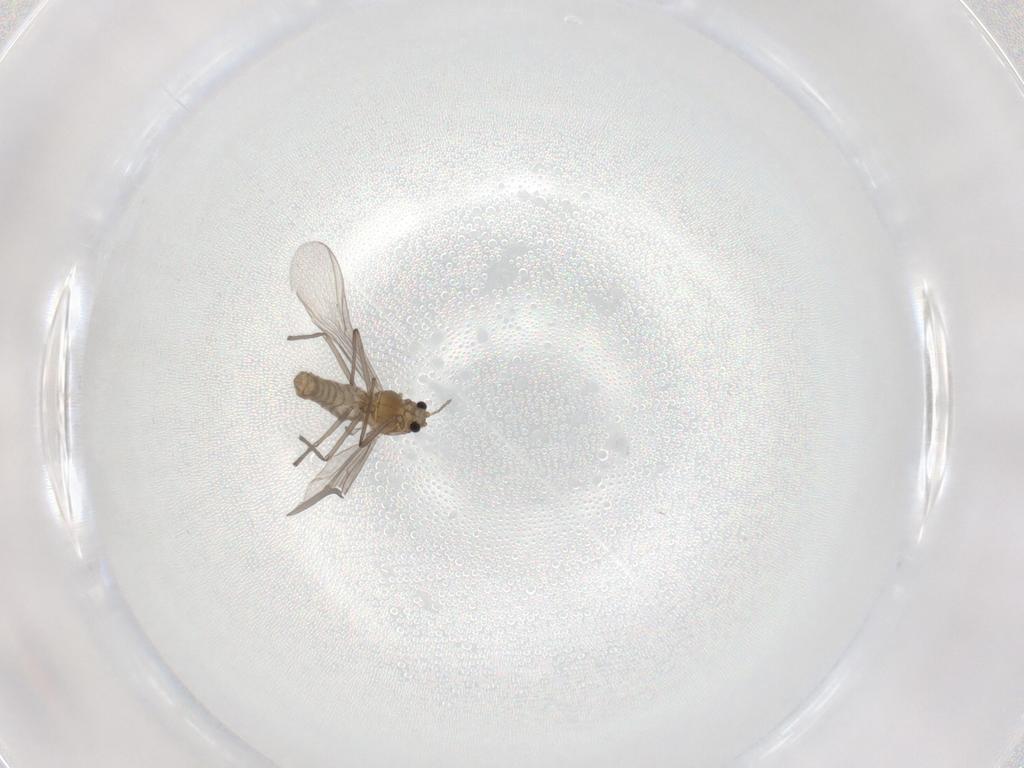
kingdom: Animalia
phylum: Arthropoda
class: Insecta
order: Diptera
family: Chironomidae
